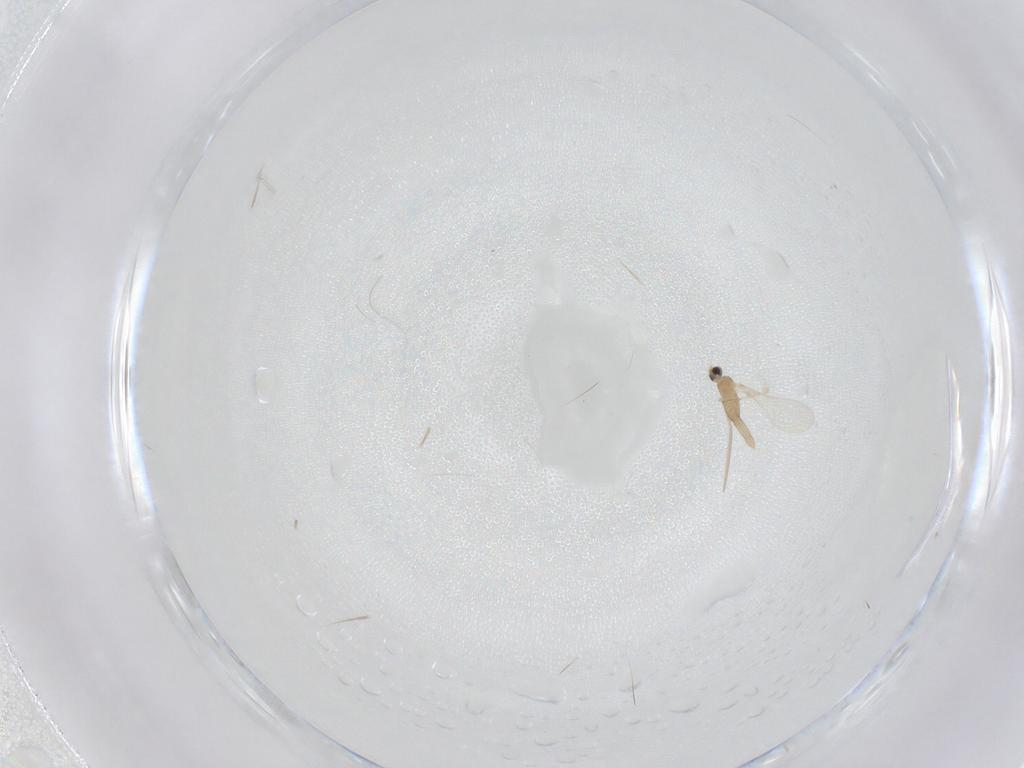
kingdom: Animalia
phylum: Arthropoda
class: Insecta
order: Diptera
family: Cecidomyiidae
